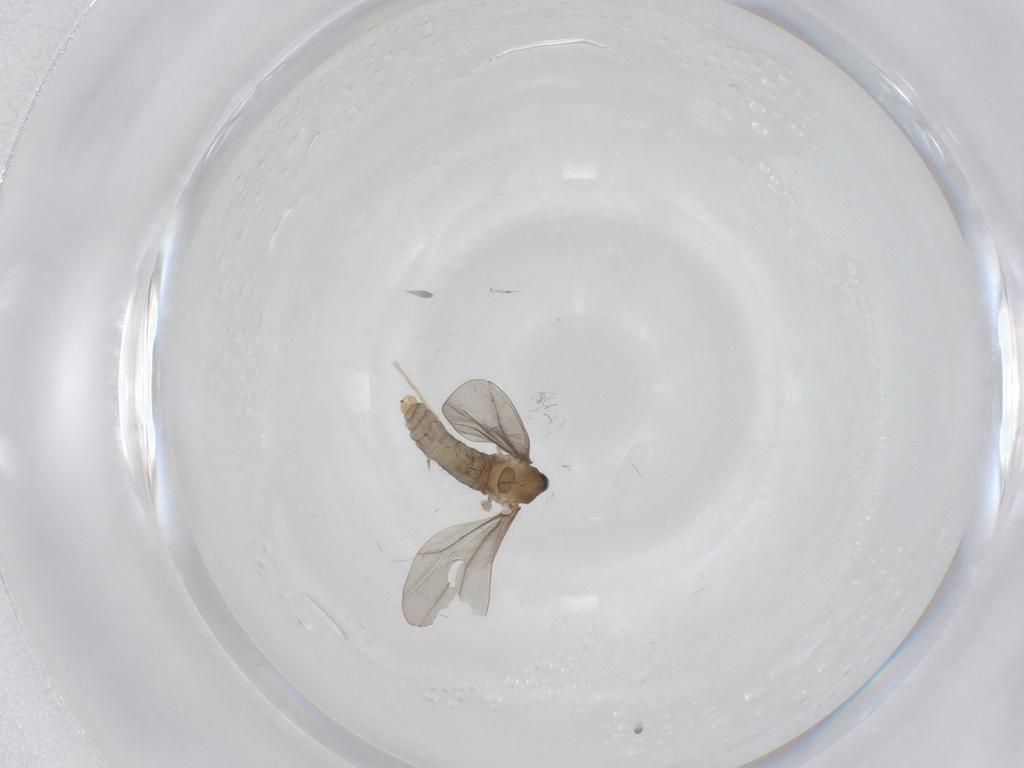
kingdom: Animalia
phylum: Arthropoda
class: Insecta
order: Diptera
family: Cecidomyiidae
